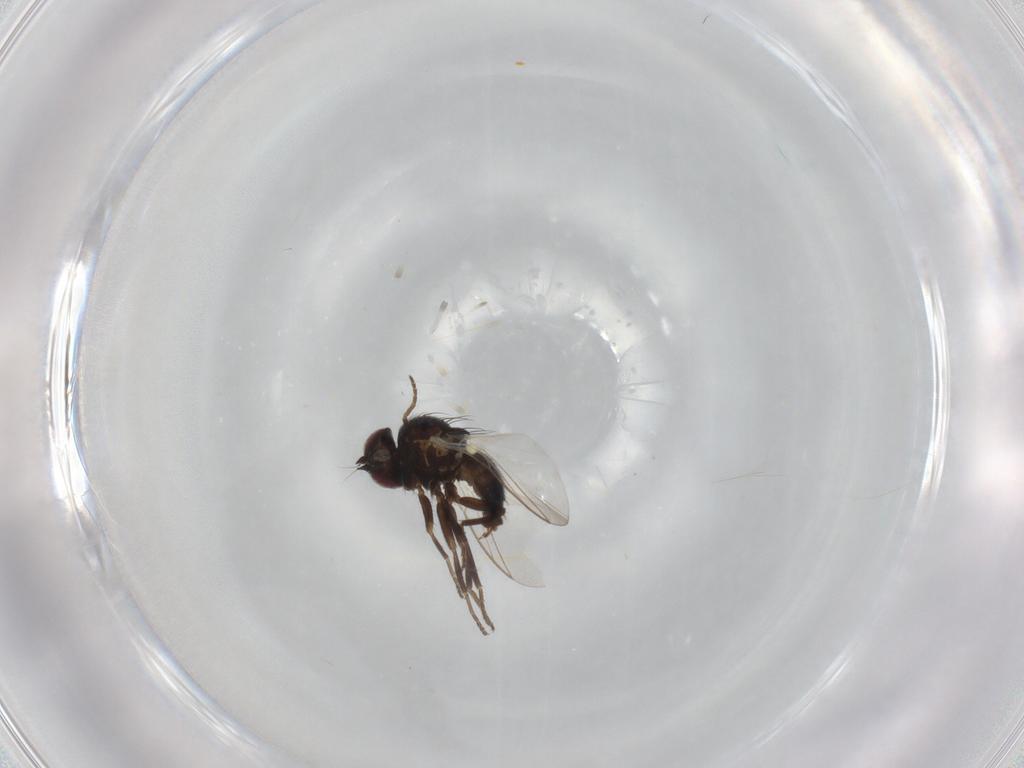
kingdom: Animalia
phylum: Arthropoda
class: Insecta
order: Diptera
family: Agromyzidae
